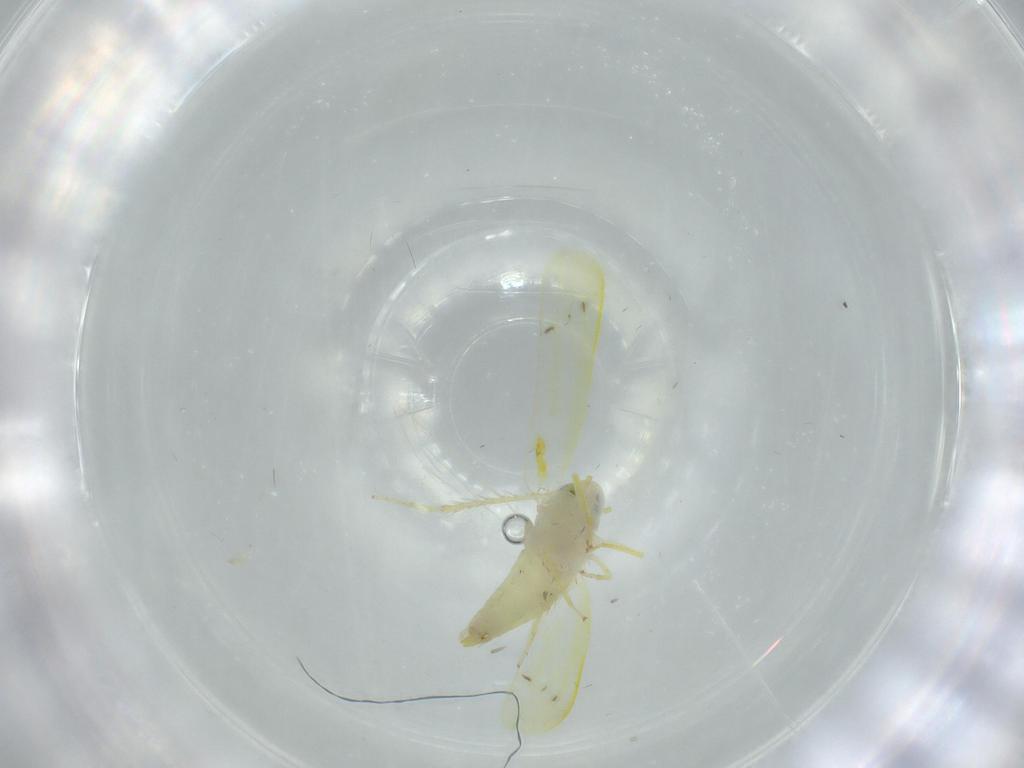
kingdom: Animalia
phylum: Arthropoda
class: Insecta
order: Hemiptera
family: Cicadellidae
